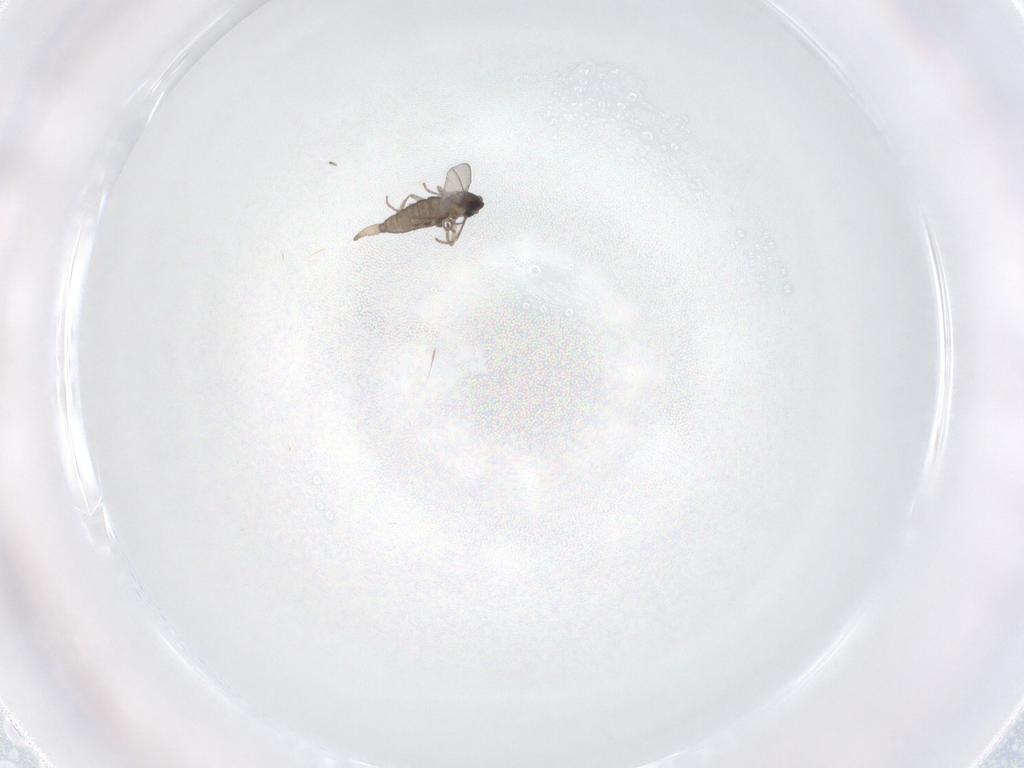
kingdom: Animalia
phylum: Arthropoda
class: Insecta
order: Diptera
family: Cecidomyiidae
